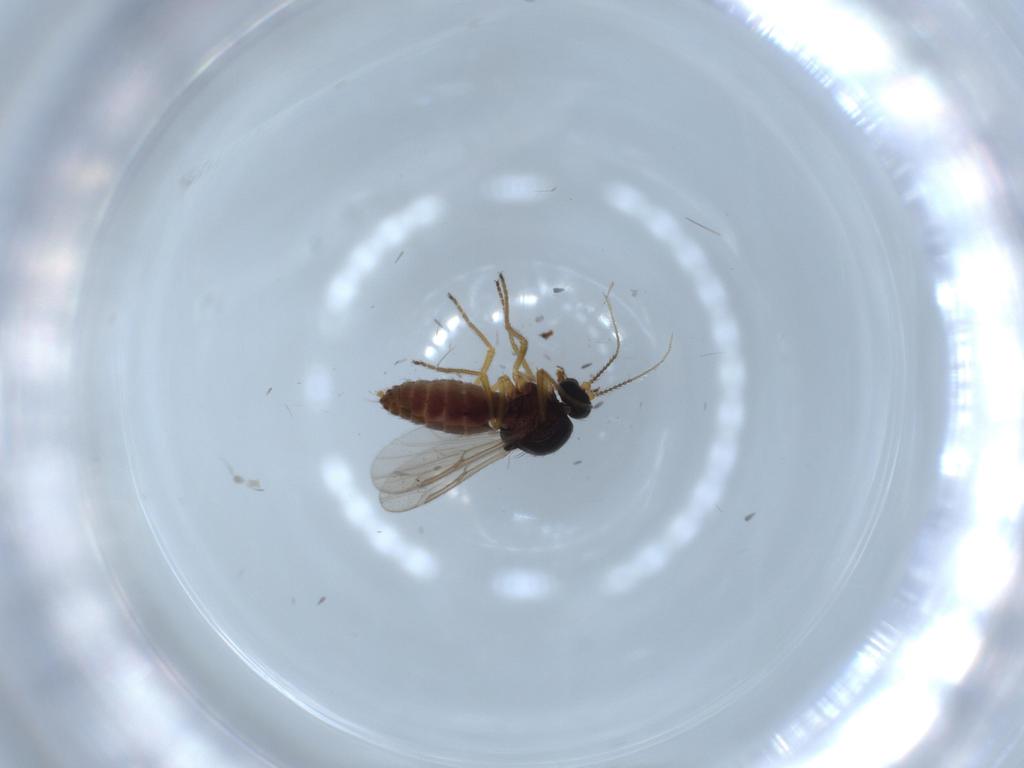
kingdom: Animalia
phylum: Arthropoda
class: Insecta
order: Diptera
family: Ceratopogonidae
